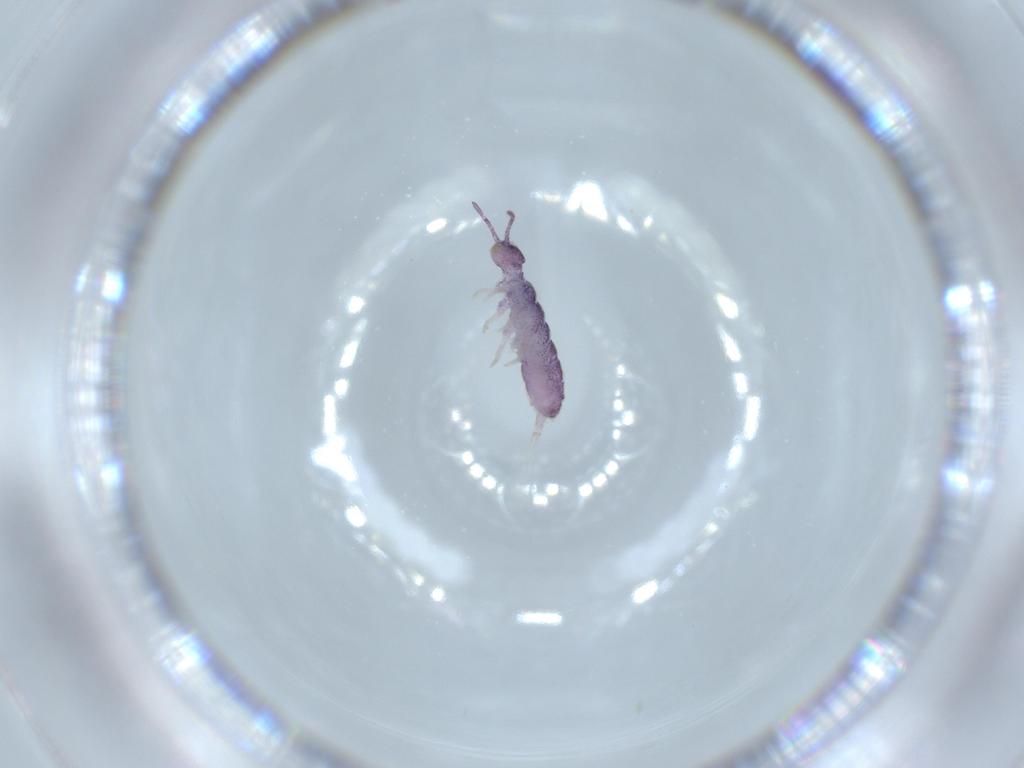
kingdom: Animalia
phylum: Arthropoda
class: Collembola
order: Entomobryomorpha
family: Isotomidae
